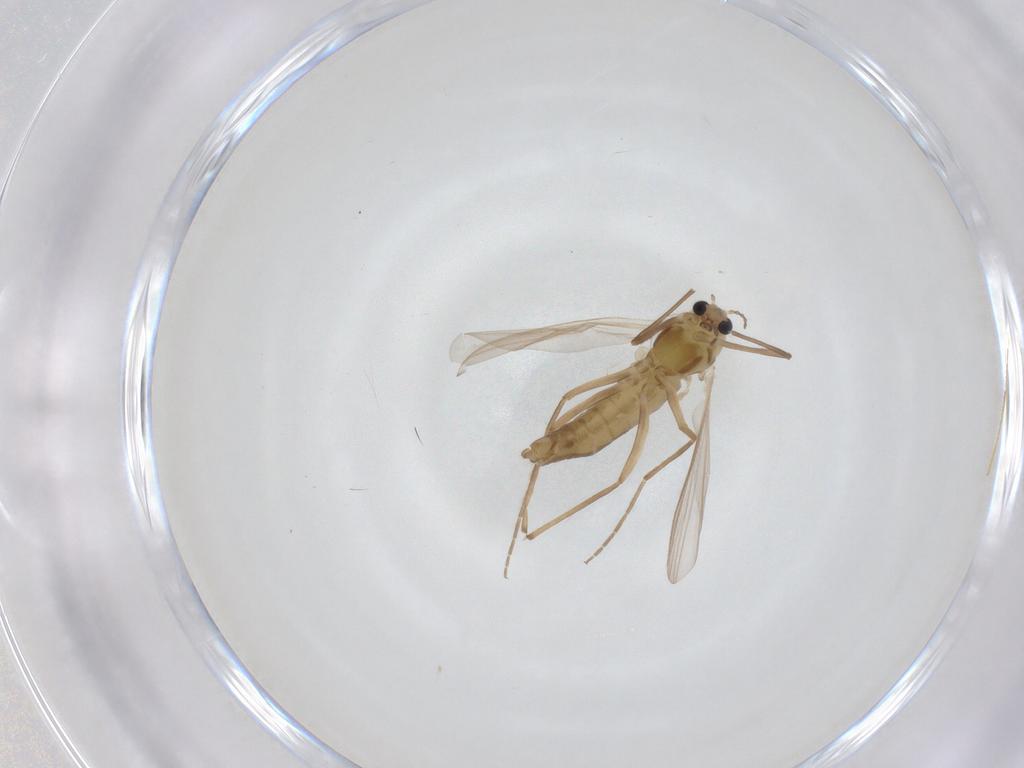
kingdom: Animalia
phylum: Arthropoda
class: Insecta
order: Diptera
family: Chironomidae
